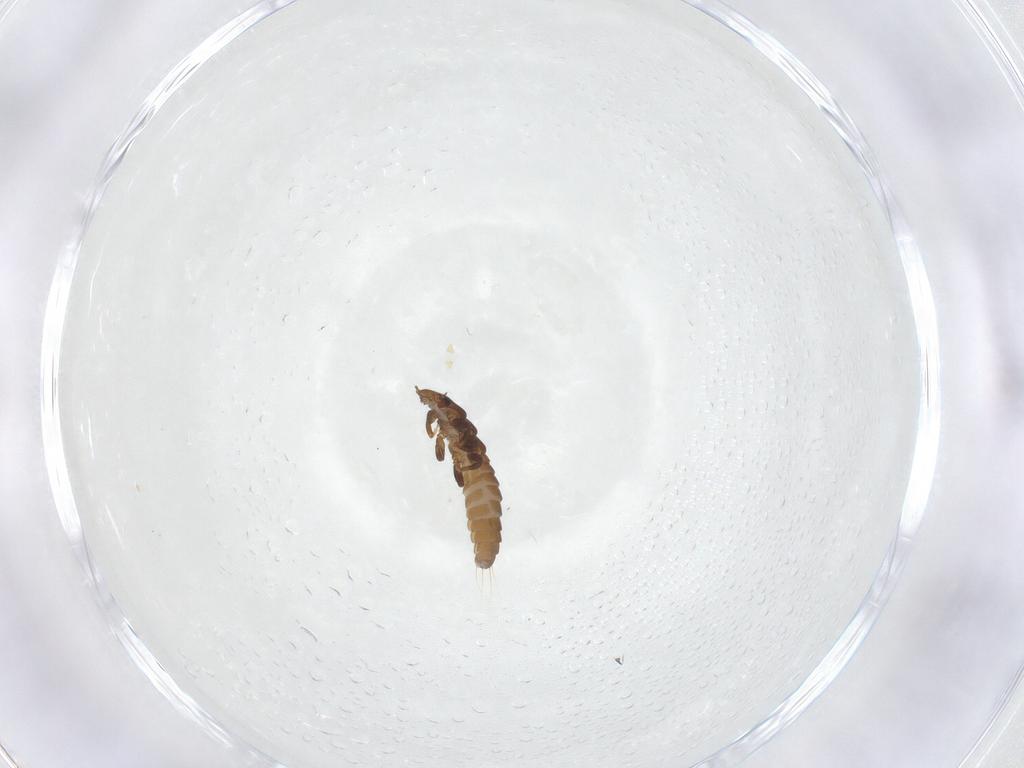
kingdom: Animalia
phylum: Arthropoda
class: Insecta
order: Coleoptera
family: Meloidae
